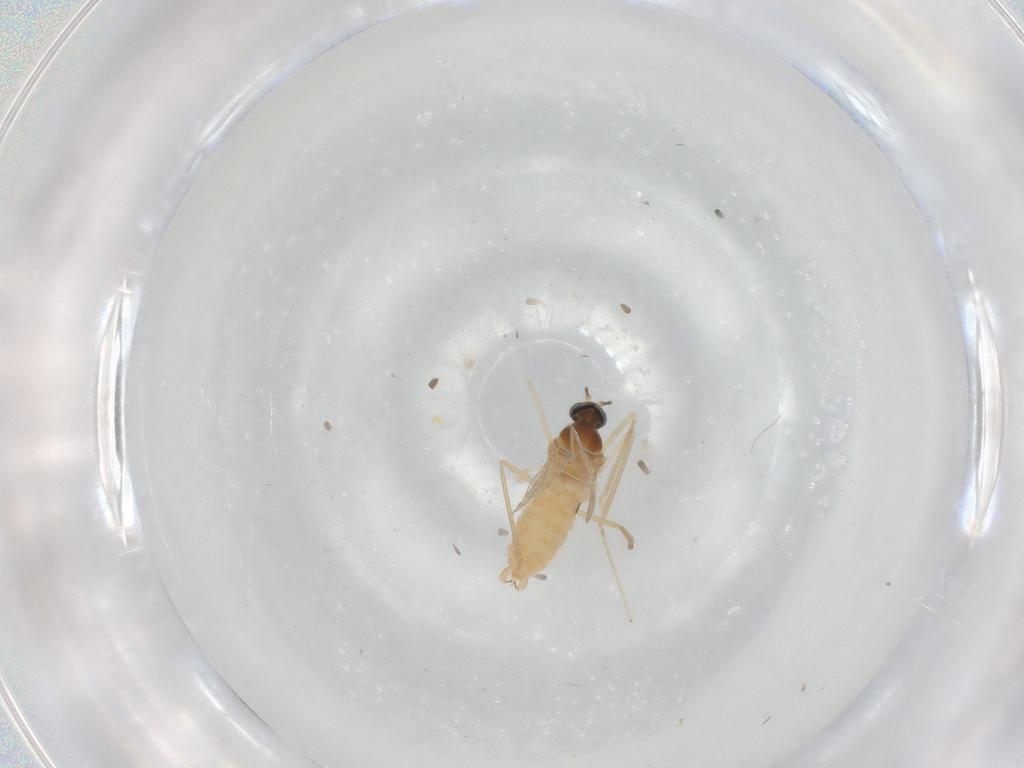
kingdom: Animalia
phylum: Arthropoda
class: Insecta
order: Diptera
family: Cecidomyiidae
